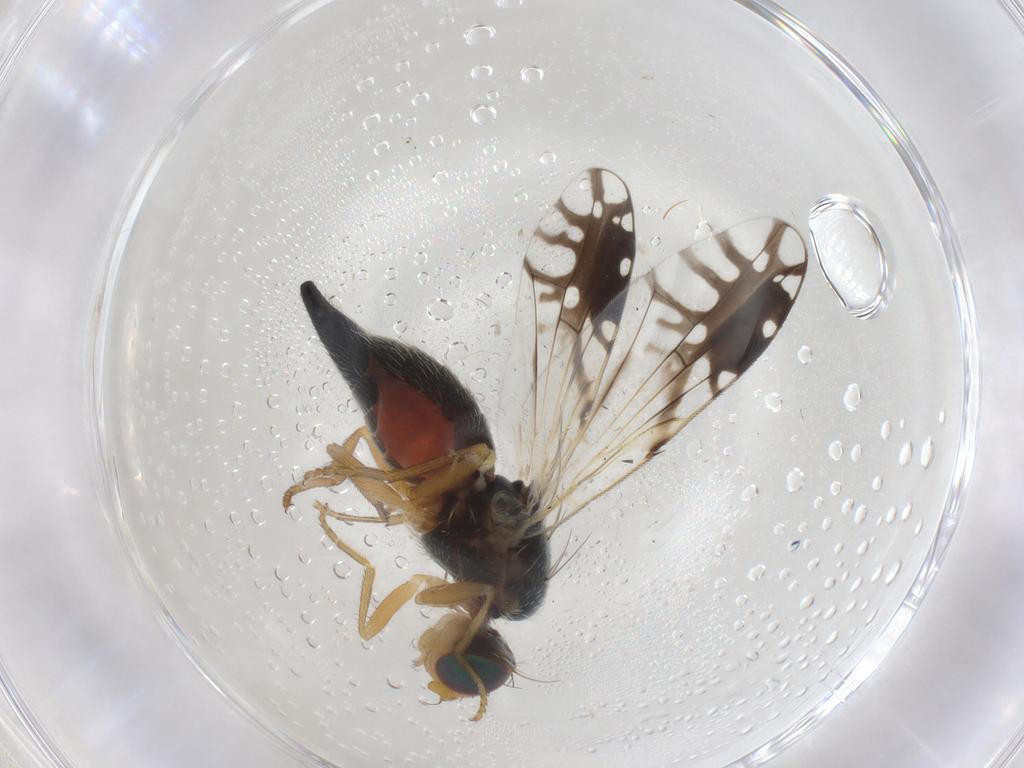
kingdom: Animalia
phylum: Arthropoda
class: Insecta
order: Diptera
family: Tephritidae
